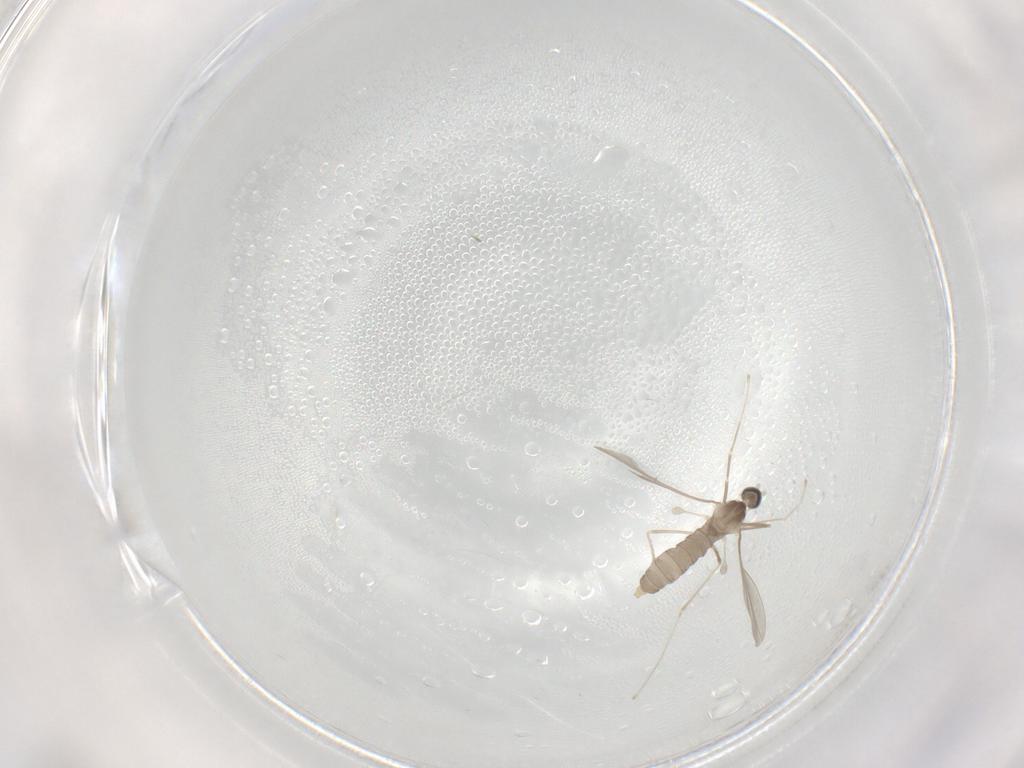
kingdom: Animalia
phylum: Arthropoda
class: Insecta
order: Diptera
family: Cecidomyiidae
